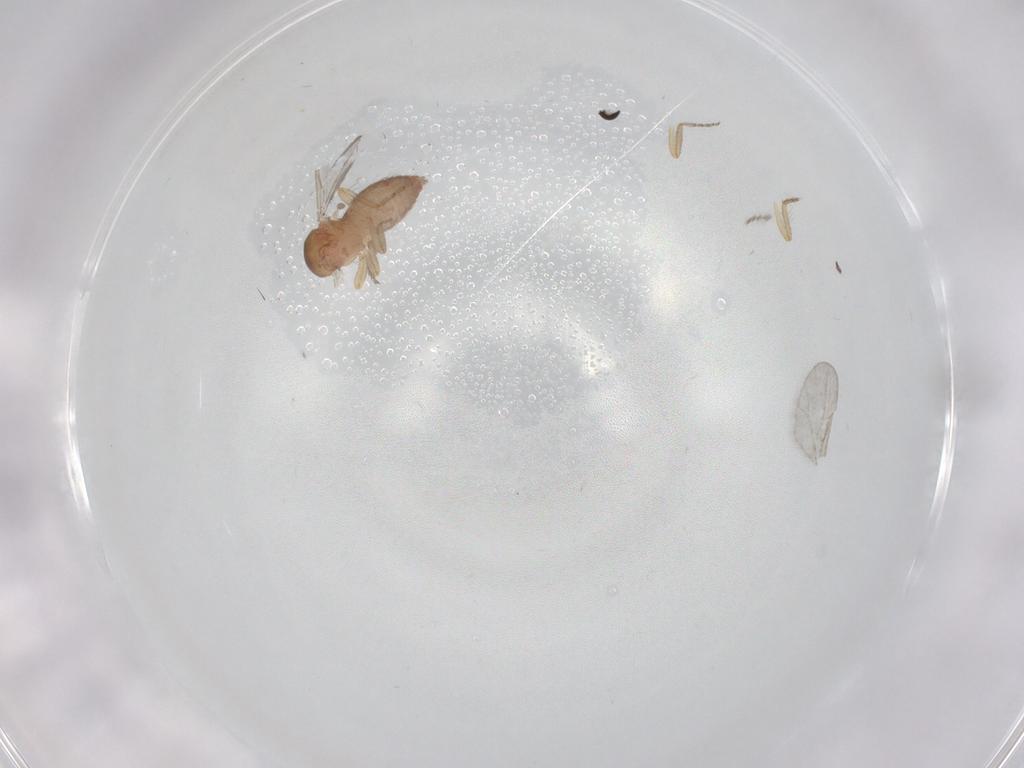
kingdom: Animalia
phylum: Arthropoda
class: Insecta
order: Diptera
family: Ceratopogonidae
